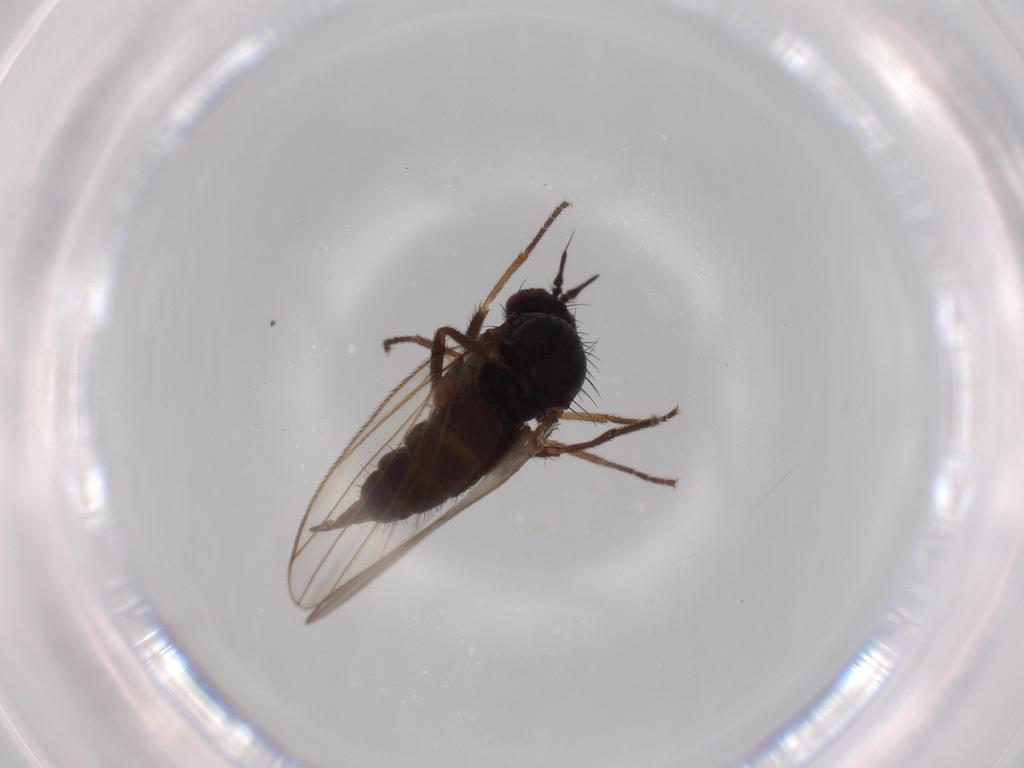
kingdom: Animalia
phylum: Arthropoda
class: Insecta
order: Diptera
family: Dolichopodidae
